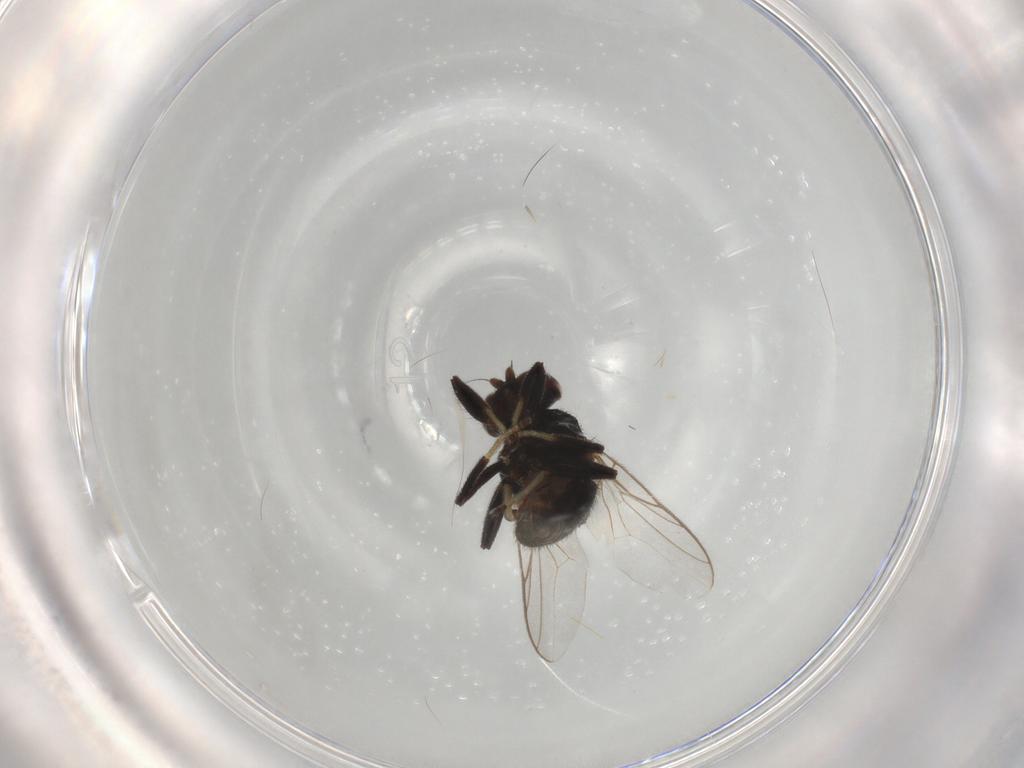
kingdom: Animalia
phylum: Arthropoda
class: Insecta
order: Diptera
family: Chloropidae
